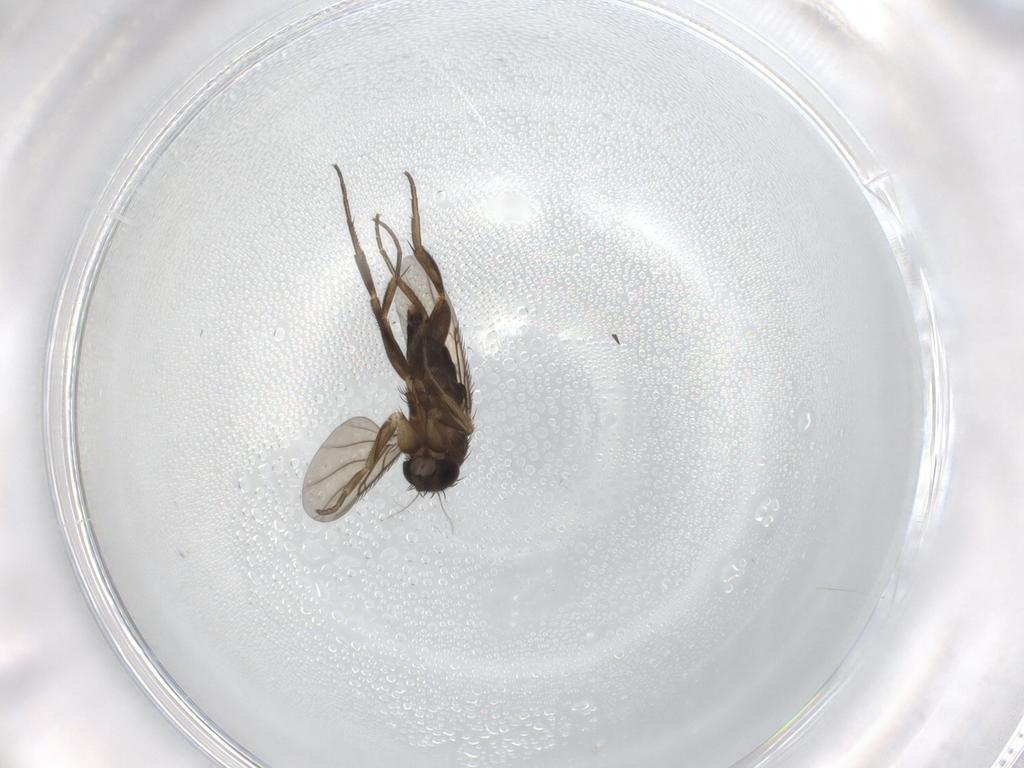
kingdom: Animalia
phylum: Arthropoda
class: Insecta
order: Diptera
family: Phoridae
